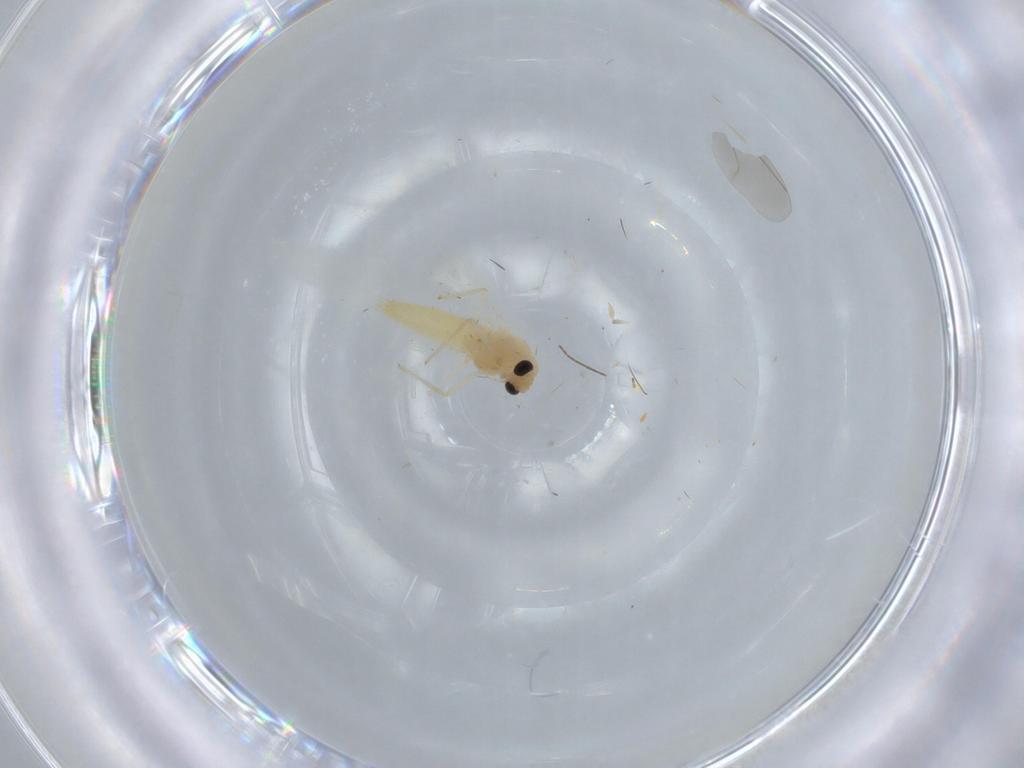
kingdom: Animalia
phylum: Arthropoda
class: Insecta
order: Diptera
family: Chironomidae
